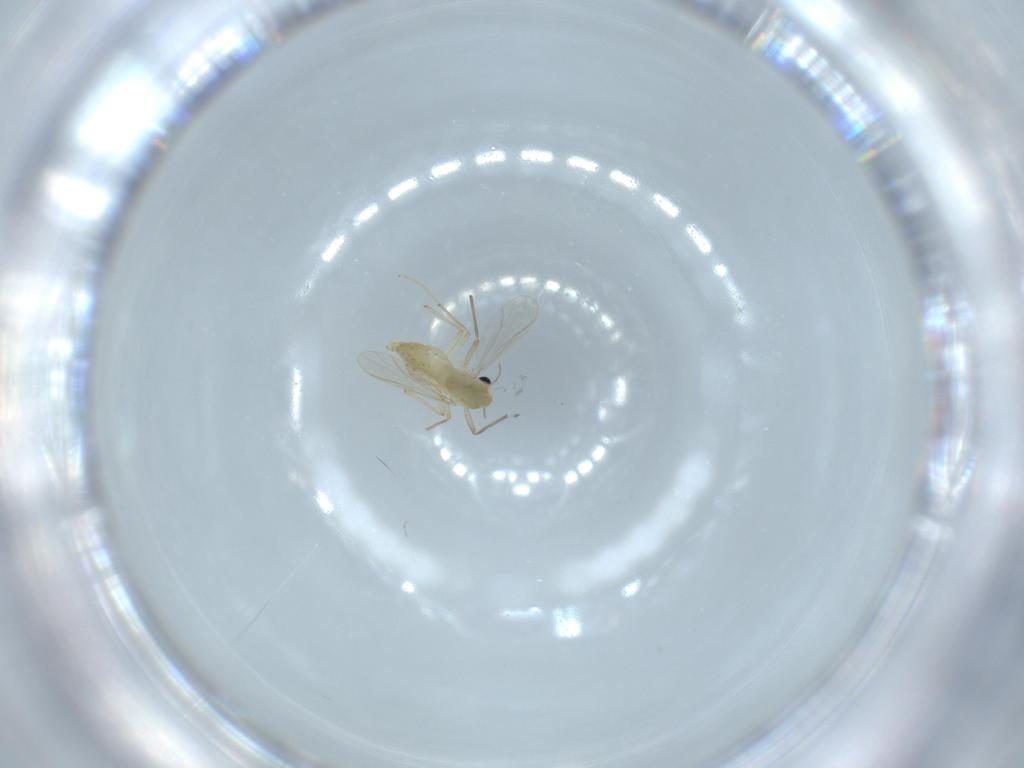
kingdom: Animalia
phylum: Arthropoda
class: Insecta
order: Diptera
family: Chironomidae
